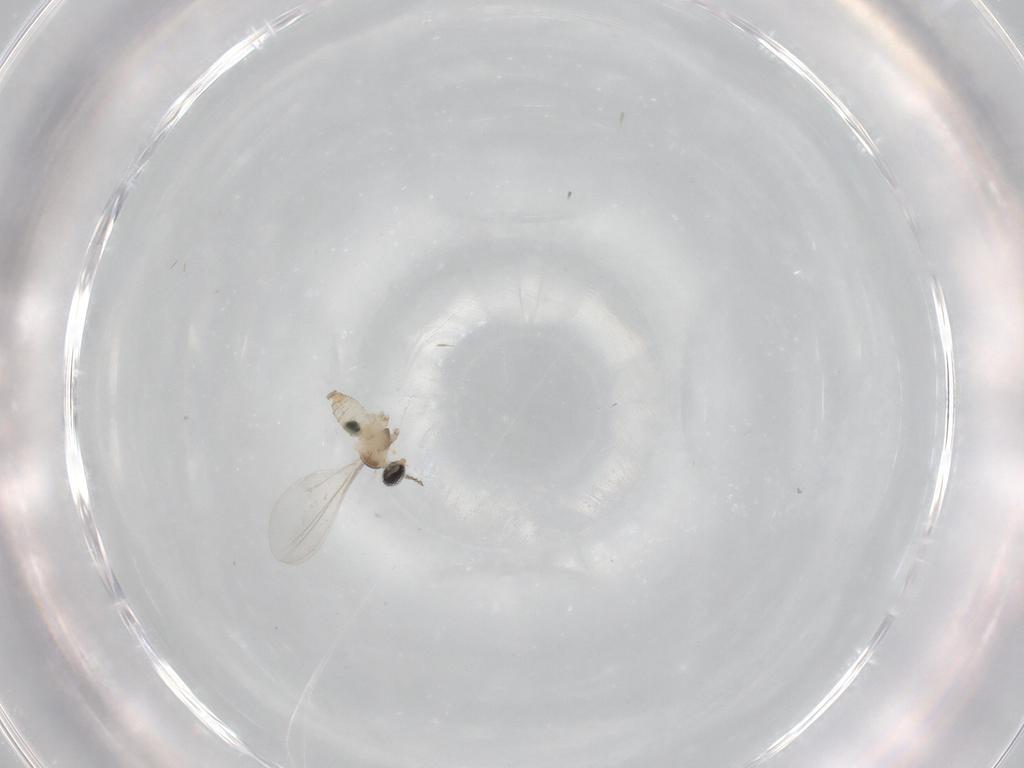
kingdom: Animalia
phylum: Arthropoda
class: Insecta
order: Diptera
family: Cecidomyiidae
